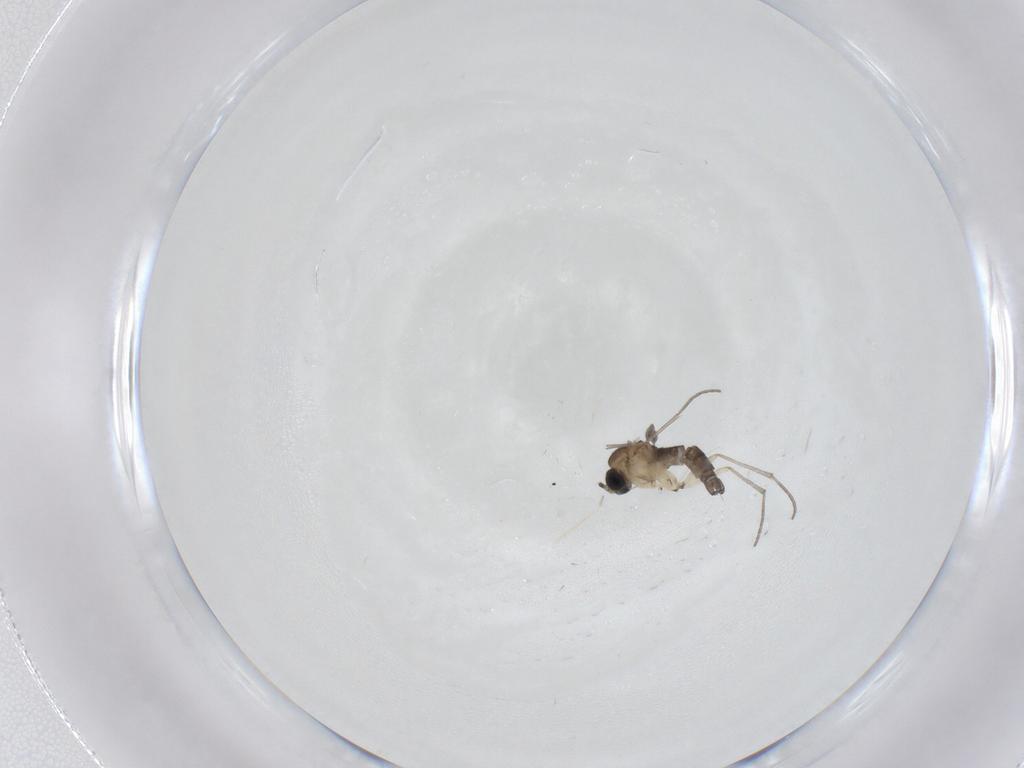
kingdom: Animalia
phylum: Arthropoda
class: Insecta
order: Diptera
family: Sciaridae
